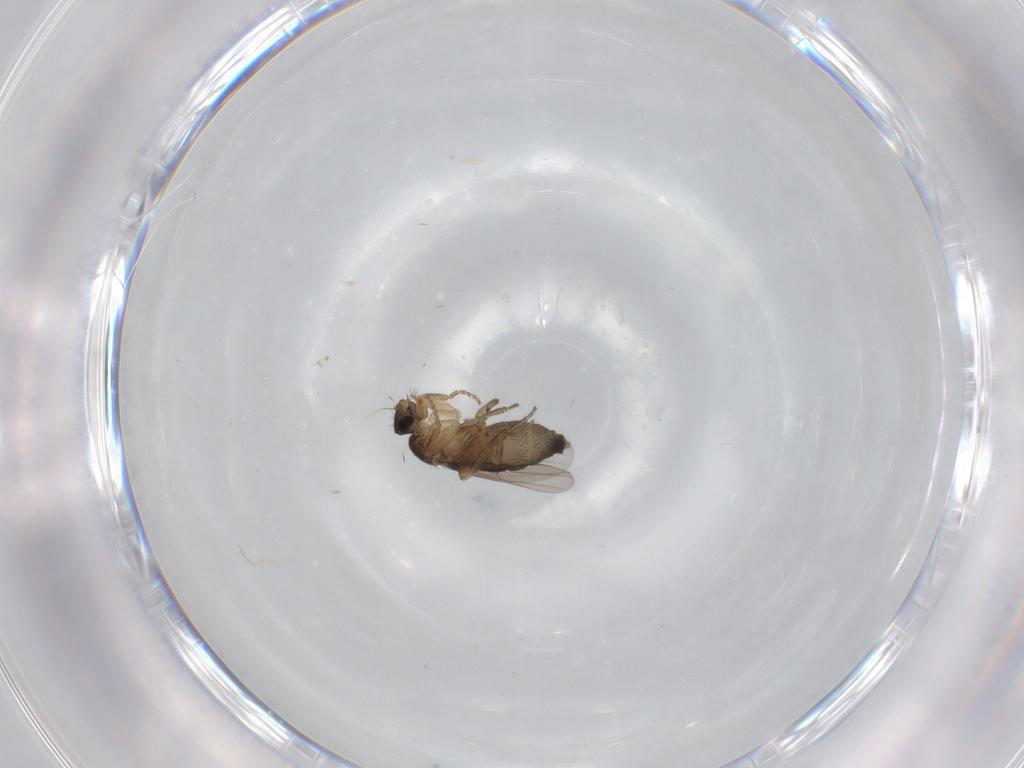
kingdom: Animalia
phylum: Arthropoda
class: Insecta
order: Diptera
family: Phoridae
